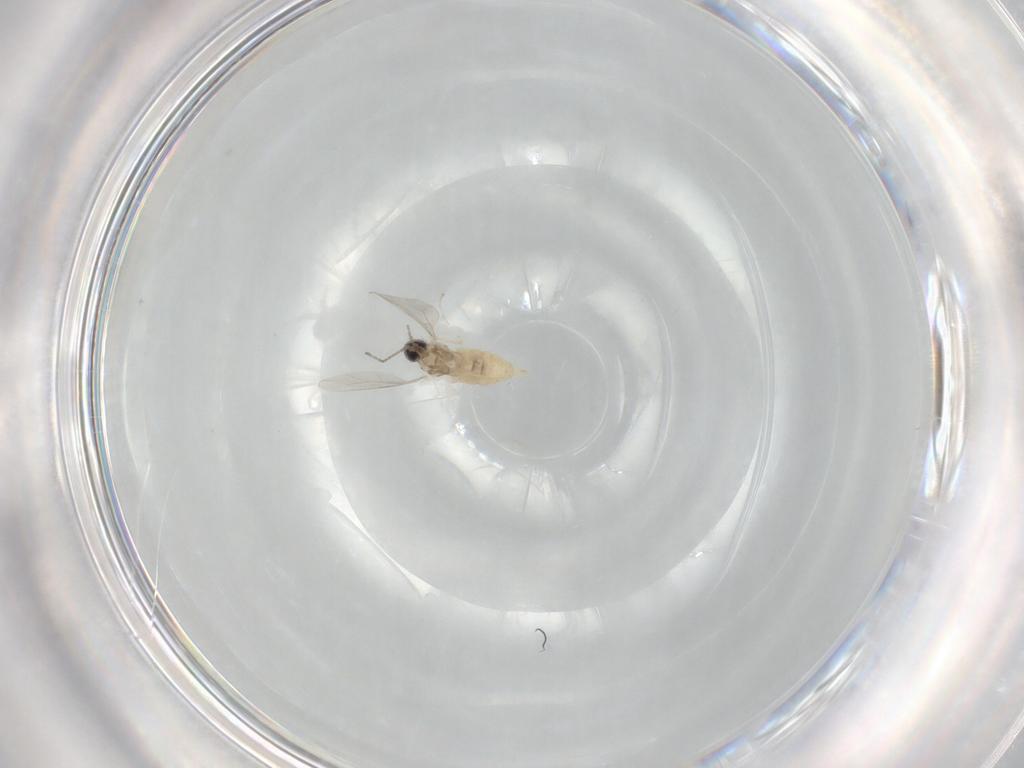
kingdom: Animalia
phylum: Arthropoda
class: Insecta
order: Diptera
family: Cecidomyiidae
